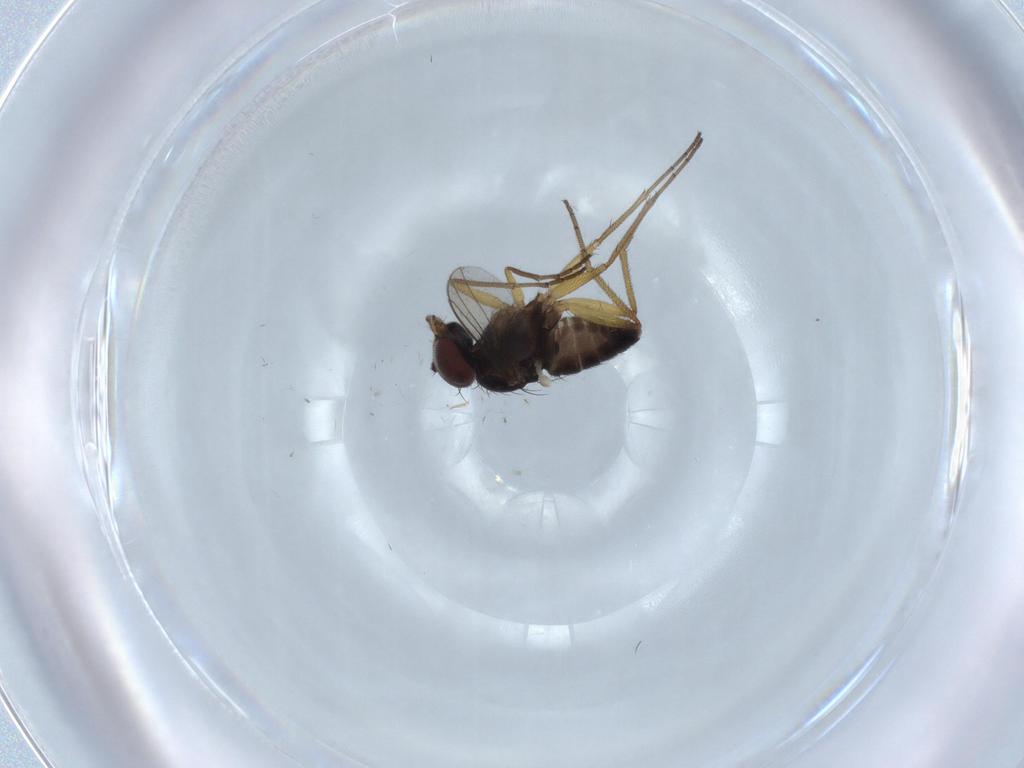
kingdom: Animalia
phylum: Arthropoda
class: Insecta
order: Diptera
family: Dolichopodidae
